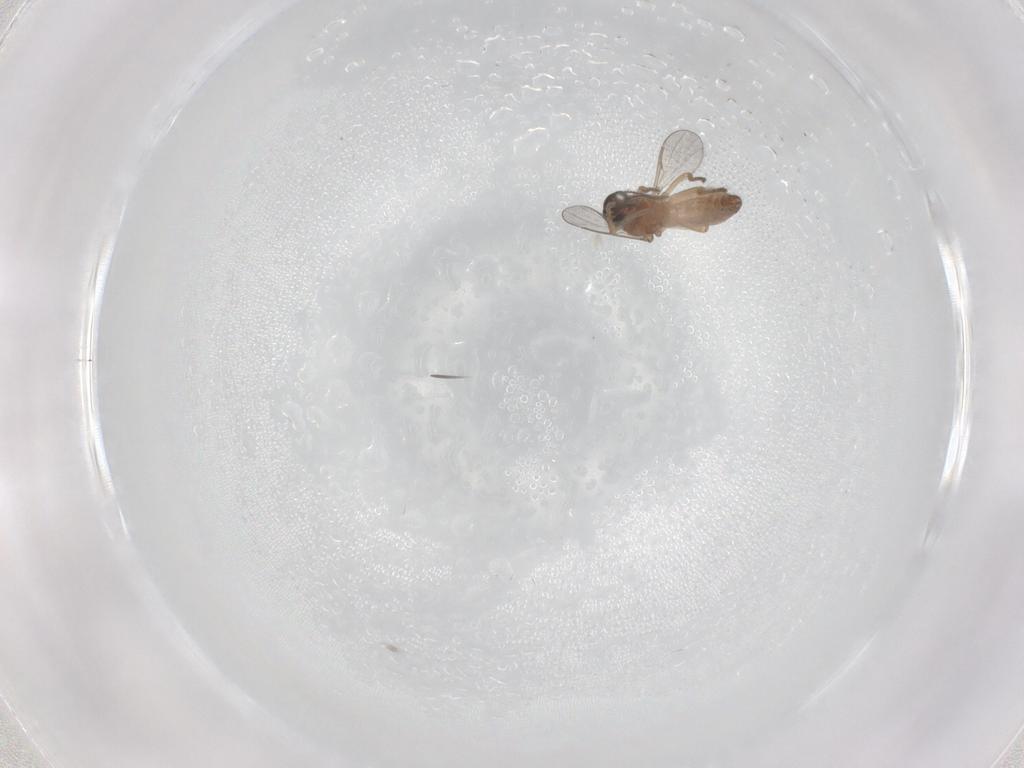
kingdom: Animalia
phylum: Arthropoda
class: Insecta
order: Diptera
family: Ceratopogonidae
